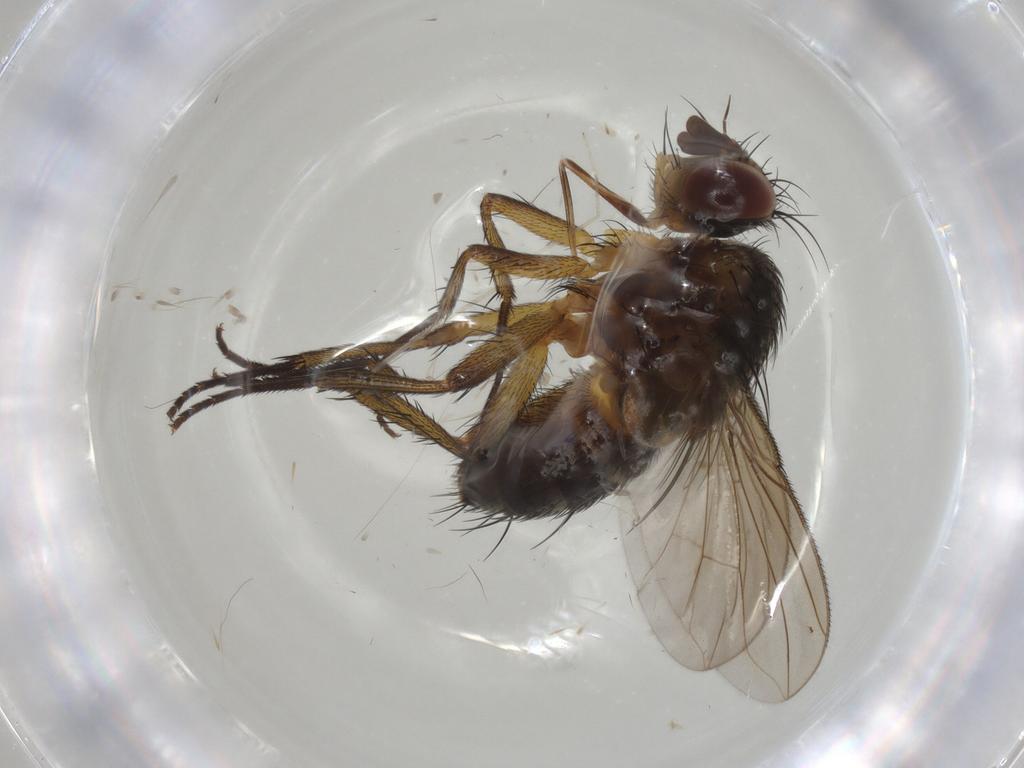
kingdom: Animalia
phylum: Arthropoda
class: Insecta
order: Diptera
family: Tachinidae
